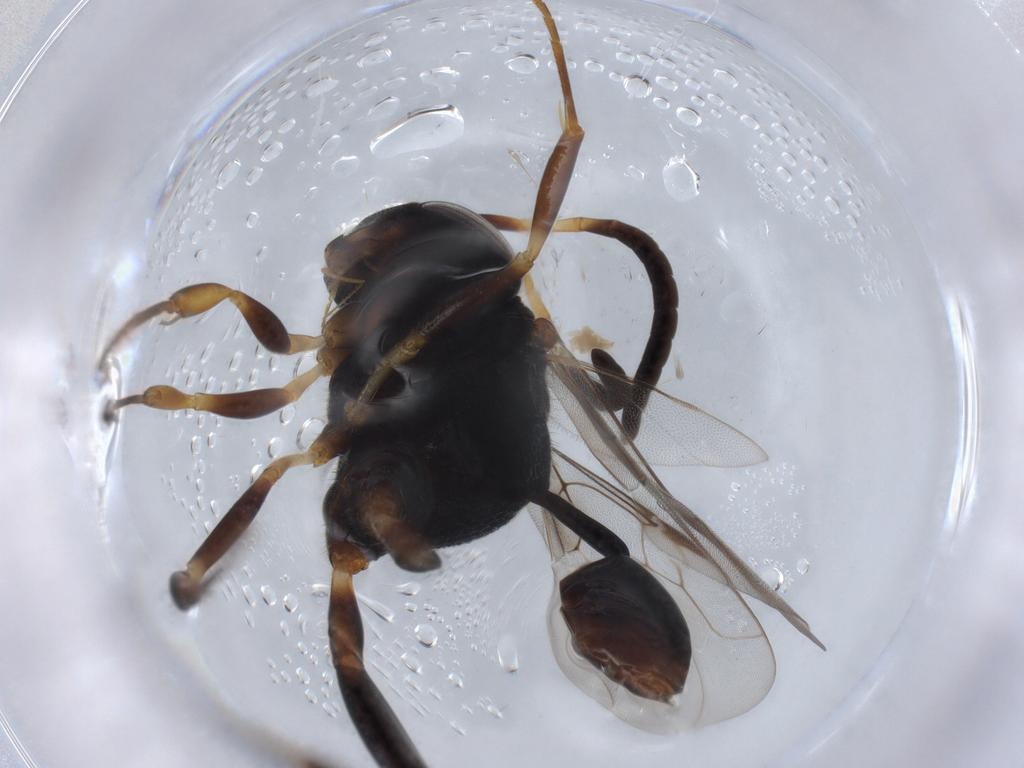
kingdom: Animalia
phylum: Arthropoda
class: Insecta
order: Hymenoptera
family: Evaniidae
